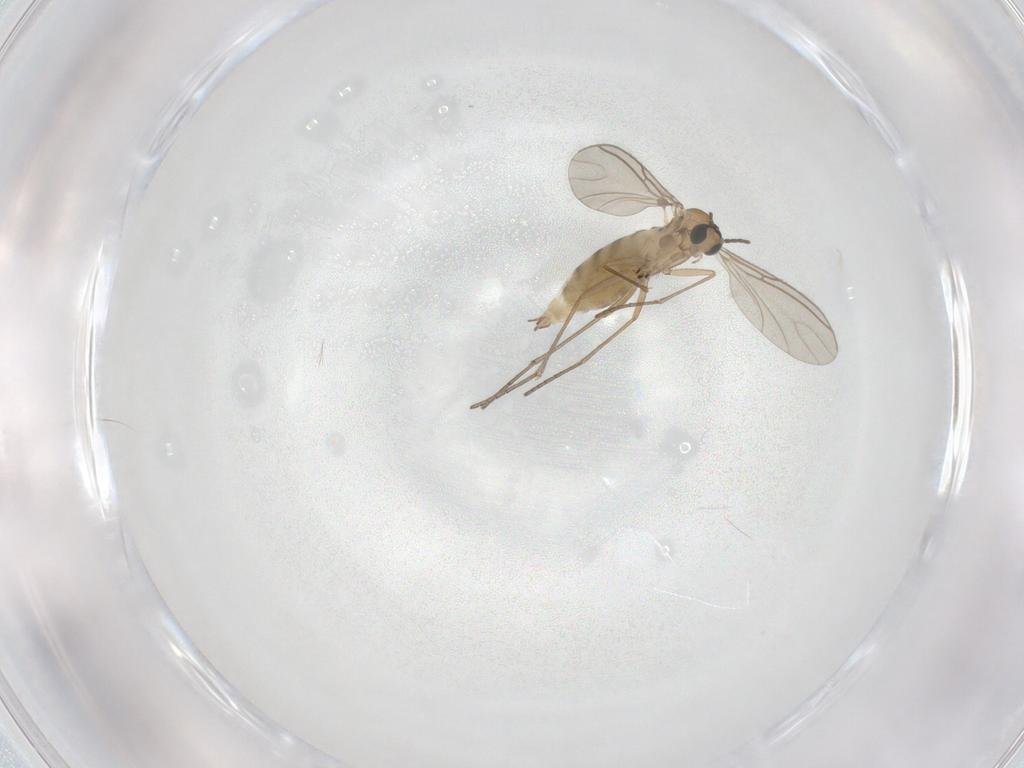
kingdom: Animalia
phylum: Arthropoda
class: Insecta
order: Diptera
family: Sciaridae
